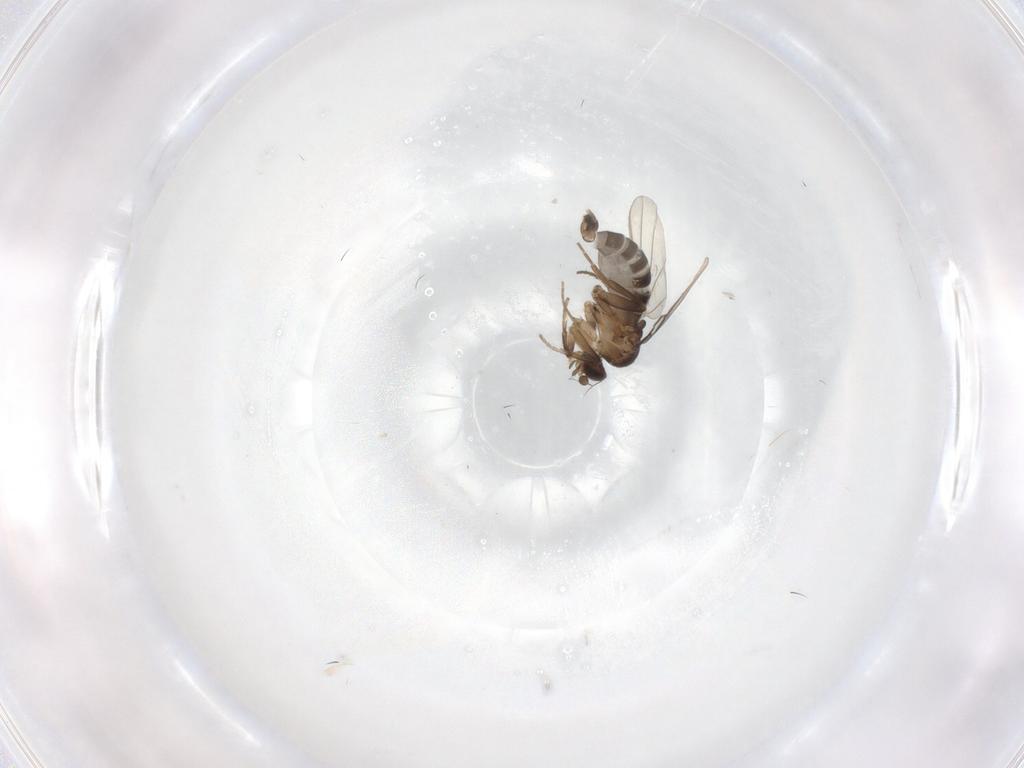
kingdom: Animalia
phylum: Arthropoda
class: Insecta
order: Diptera
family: Phoridae
